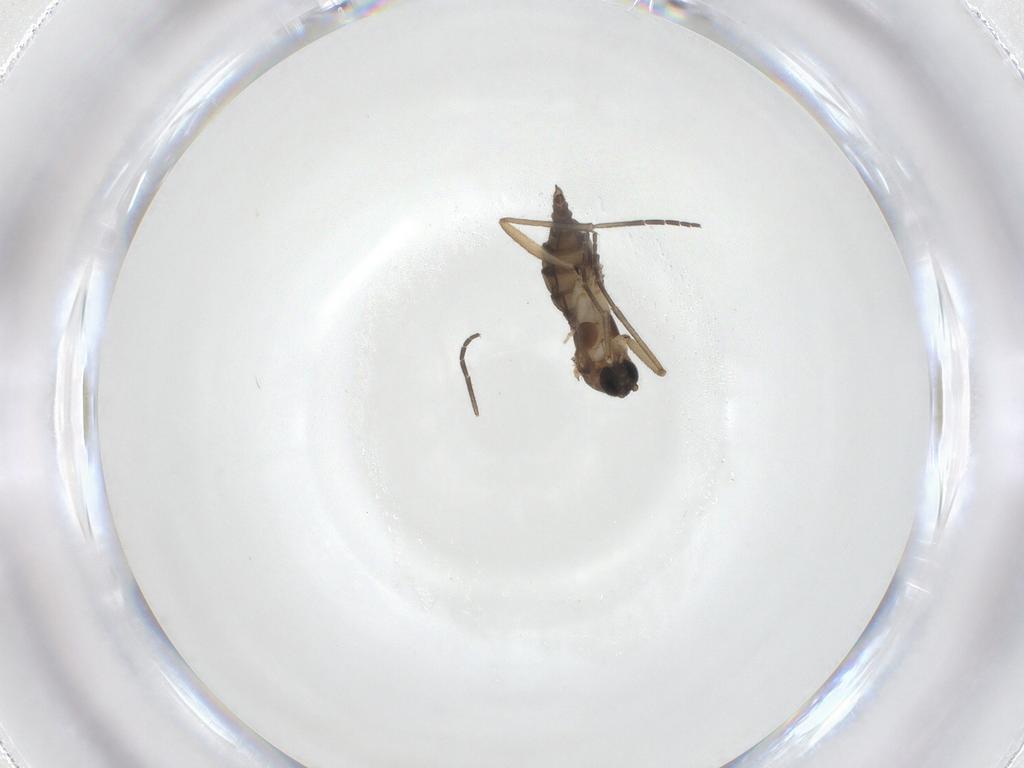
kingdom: Animalia
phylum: Arthropoda
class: Insecta
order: Diptera
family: Sciaridae
